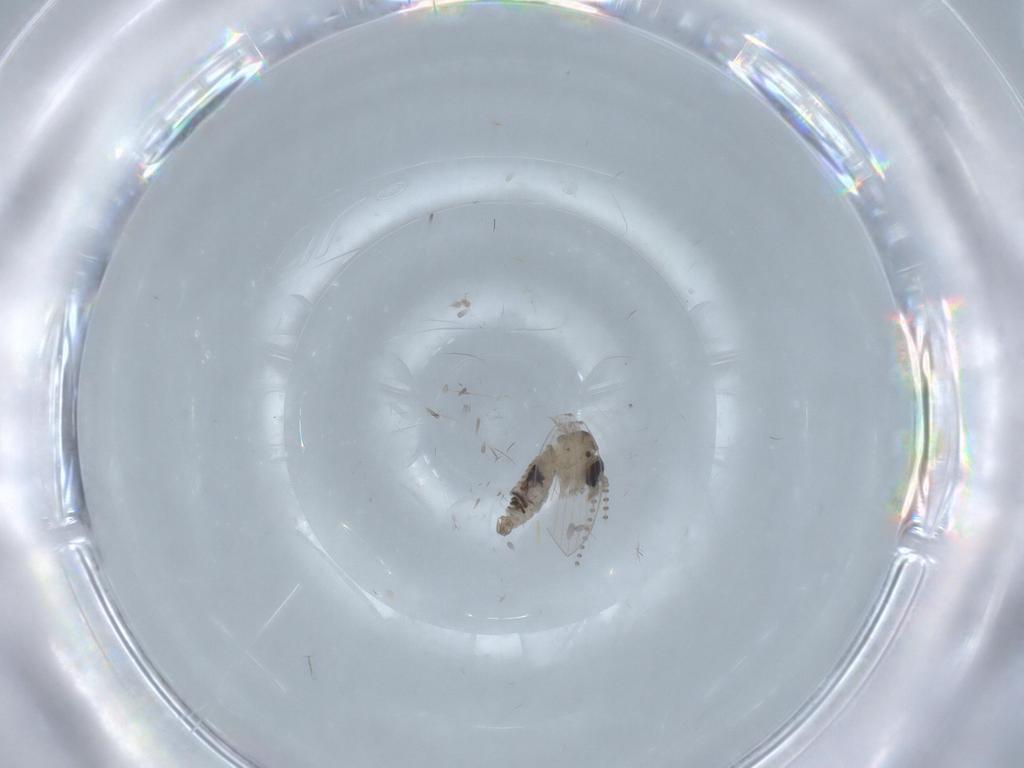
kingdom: Animalia
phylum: Arthropoda
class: Insecta
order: Diptera
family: Psychodidae
